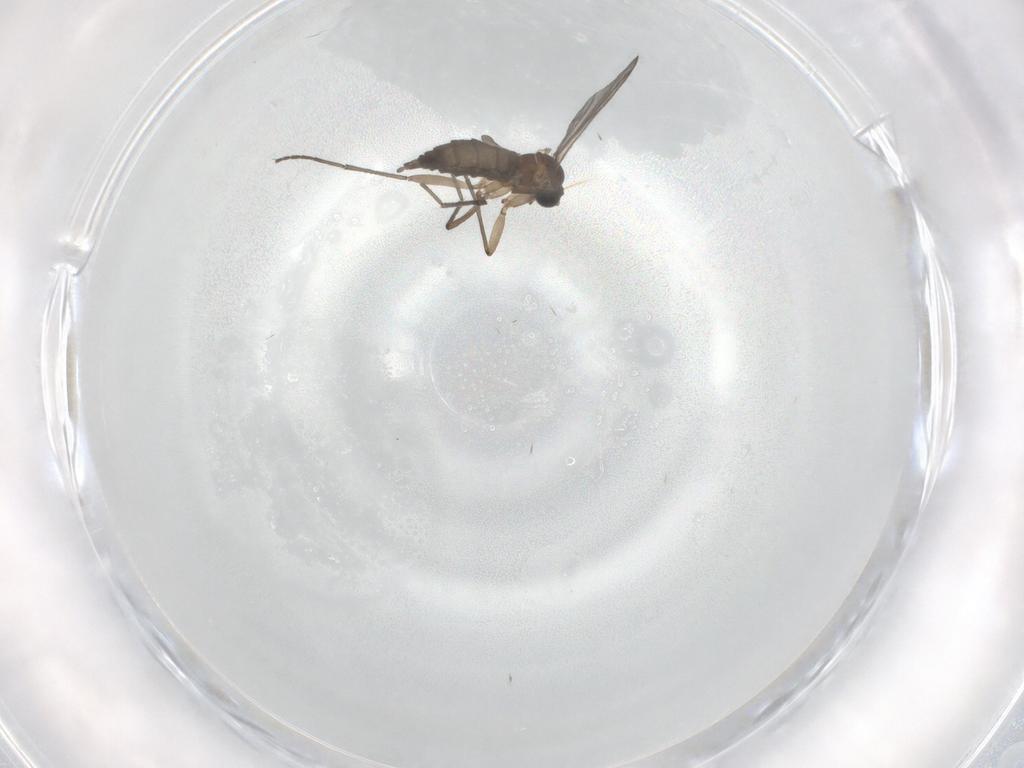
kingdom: Animalia
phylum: Arthropoda
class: Insecta
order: Diptera
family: Sciaridae
